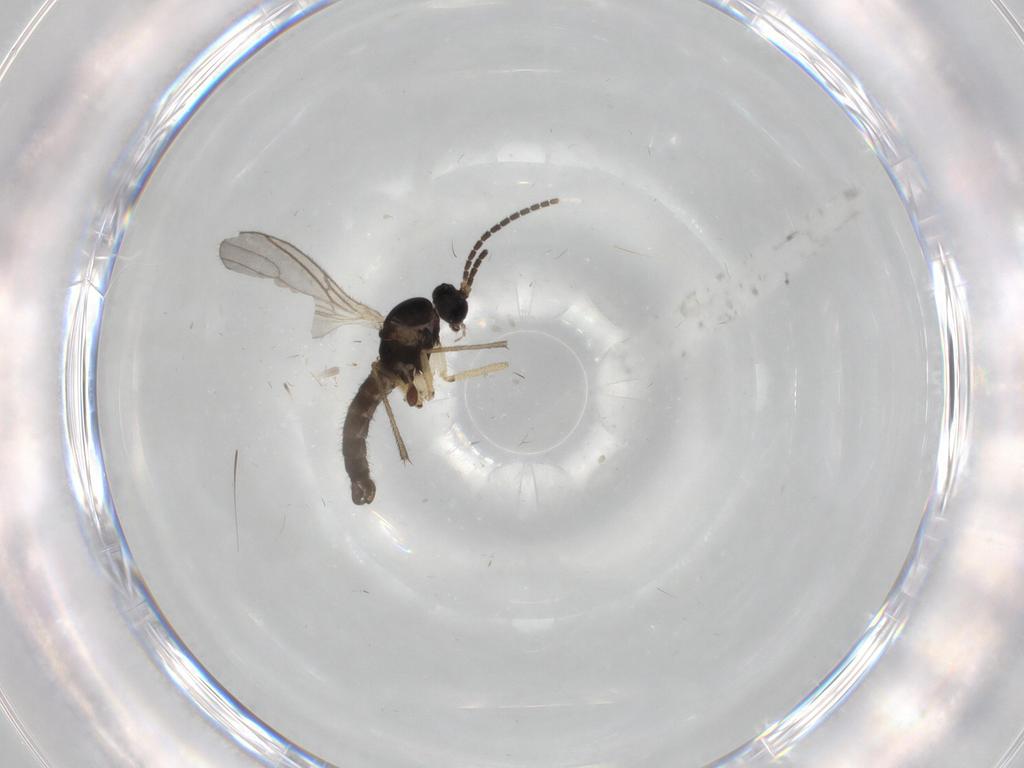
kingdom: Animalia
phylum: Arthropoda
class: Insecta
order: Diptera
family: Sciaridae
